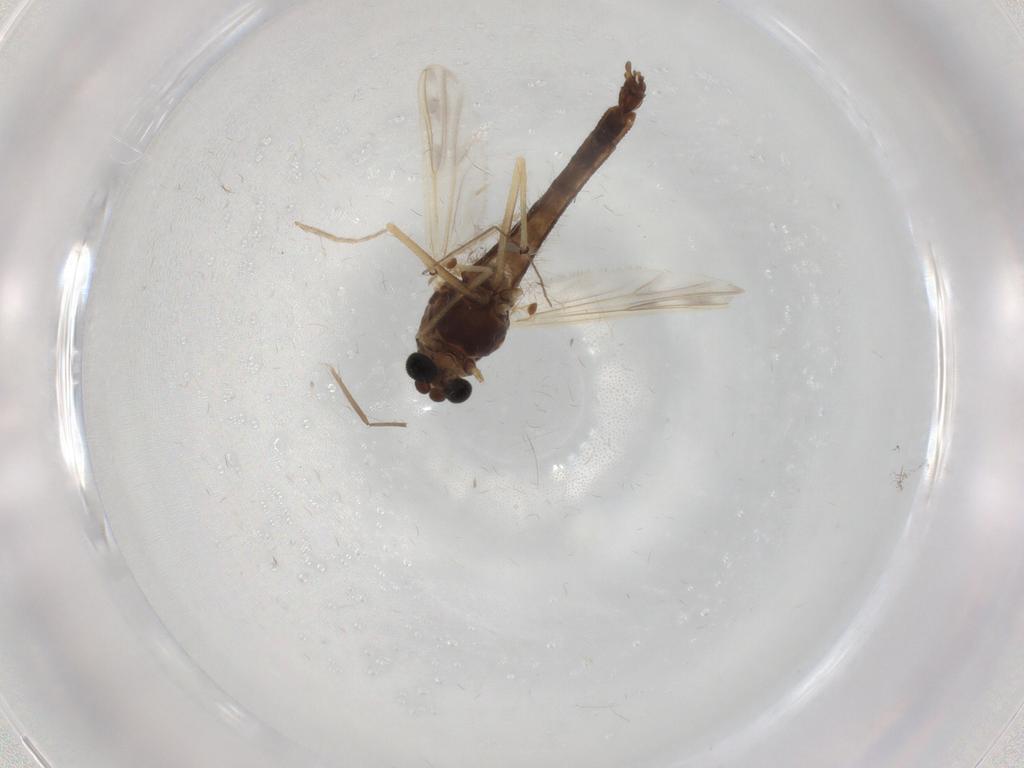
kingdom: Animalia
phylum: Arthropoda
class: Insecta
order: Diptera
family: Chironomidae
